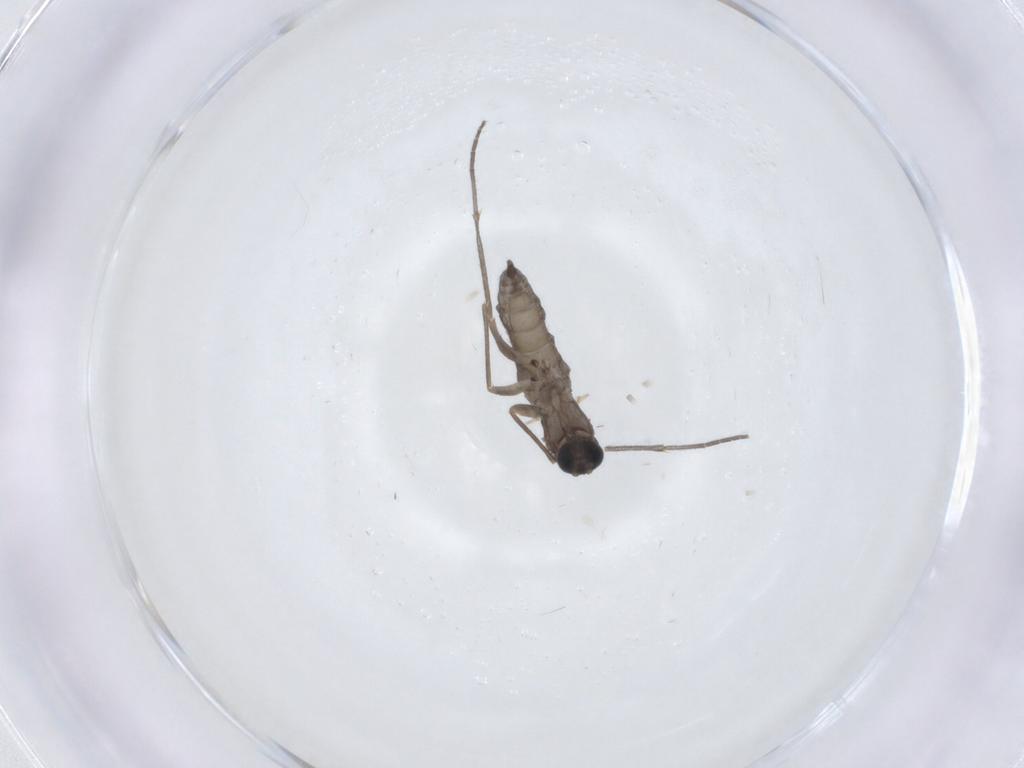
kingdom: Animalia
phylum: Arthropoda
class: Insecta
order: Diptera
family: Sciaridae
